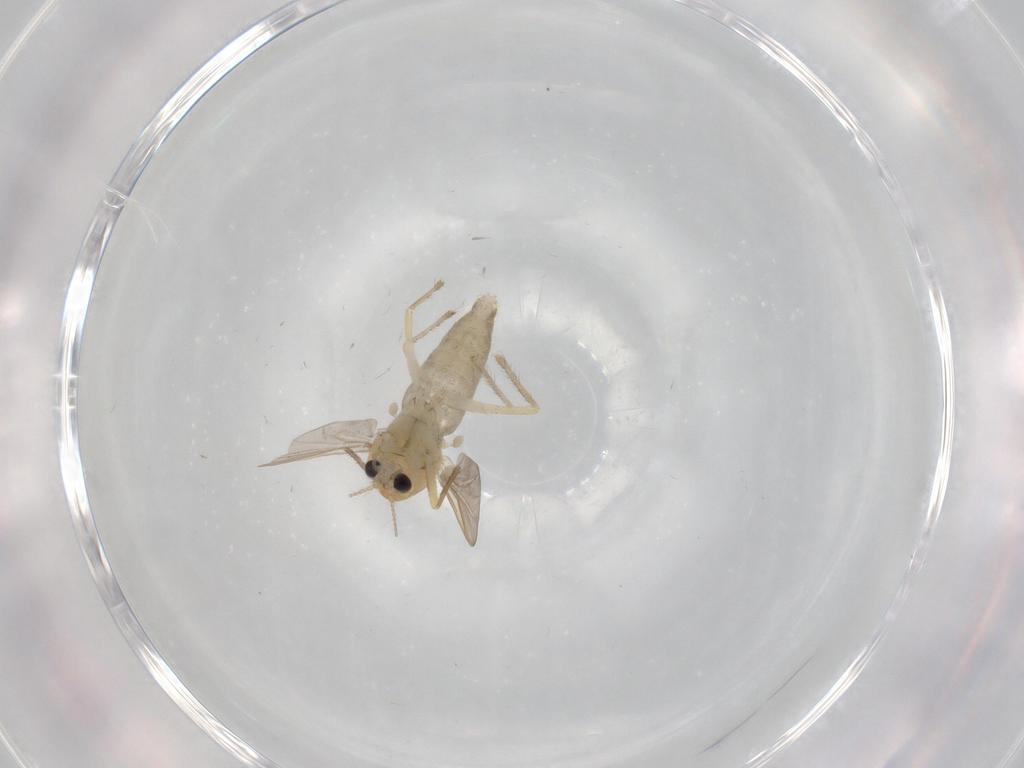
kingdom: Animalia
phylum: Arthropoda
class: Insecta
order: Diptera
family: Chironomidae
